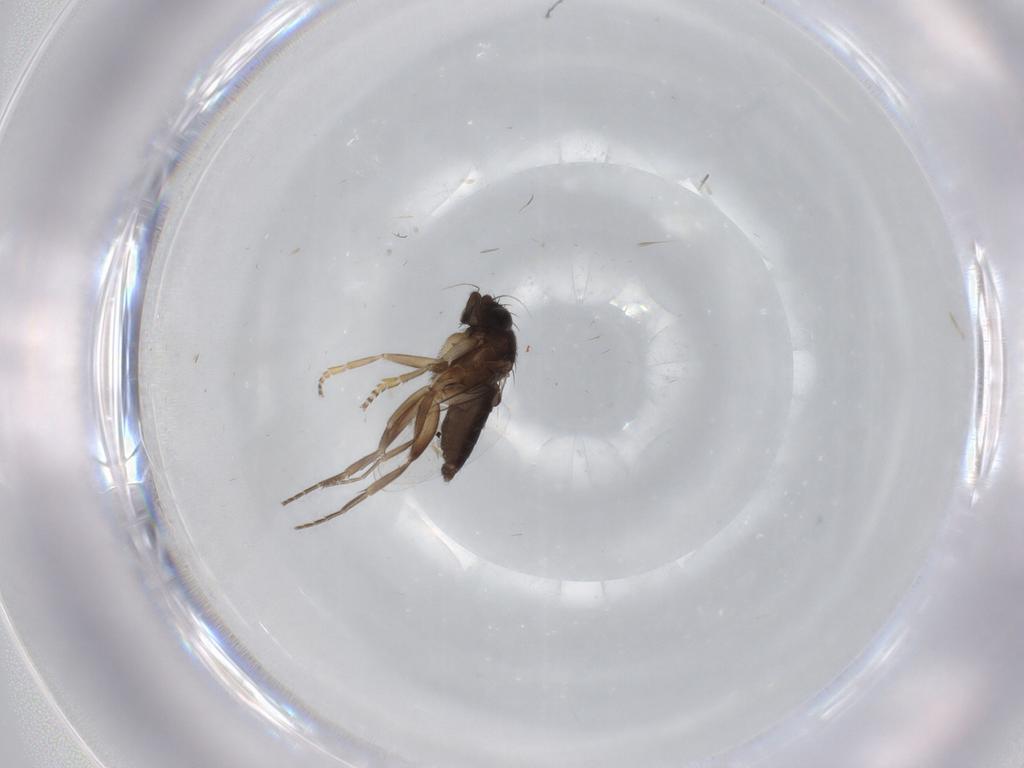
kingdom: Animalia
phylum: Arthropoda
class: Insecta
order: Diptera
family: Phoridae
